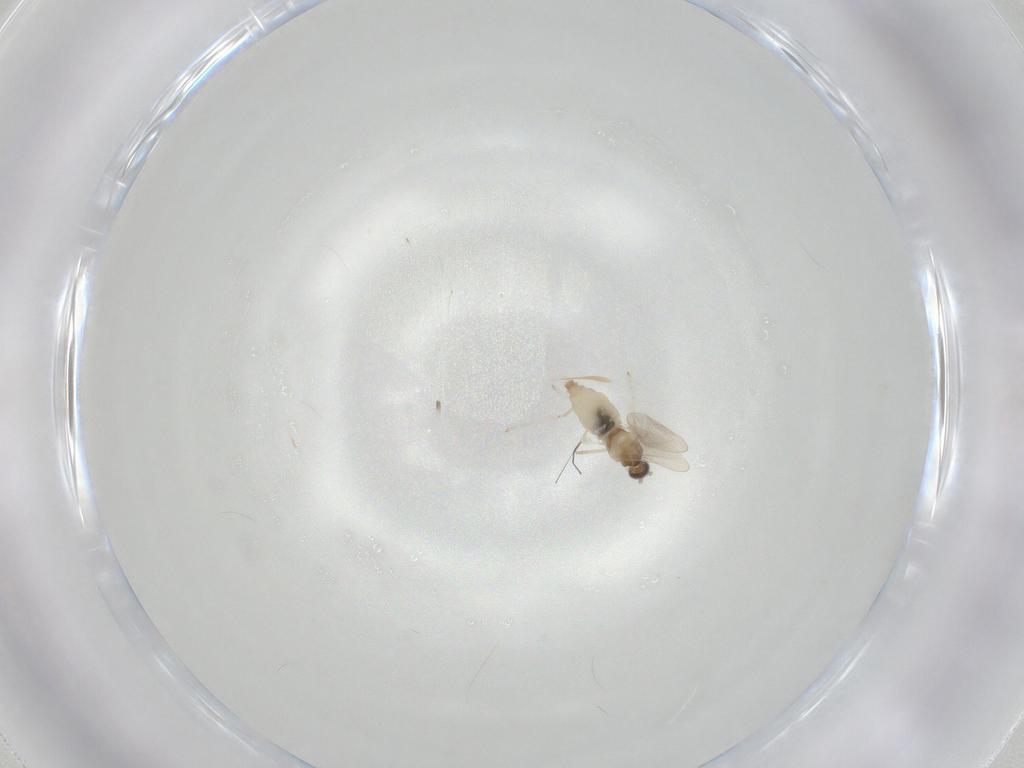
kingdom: Animalia
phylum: Arthropoda
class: Insecta
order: Diptera
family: Cecidomyiidae
